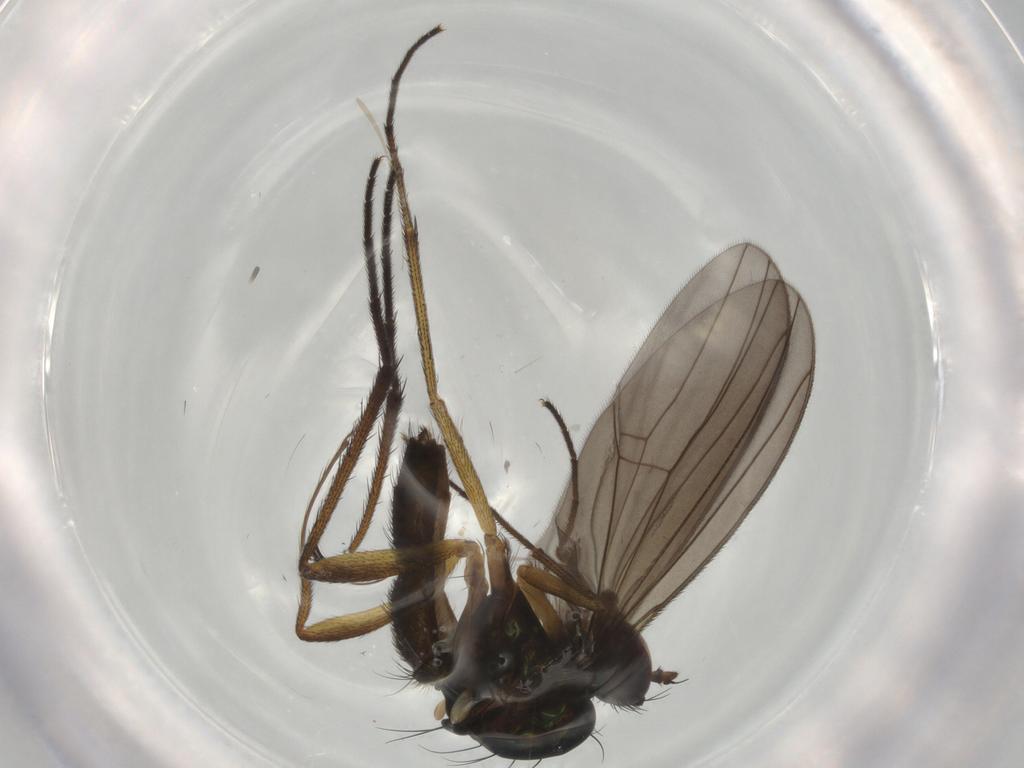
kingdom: Animalia
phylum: Arthropoda
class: Insecta
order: Diptera
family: Dolichopodidae
